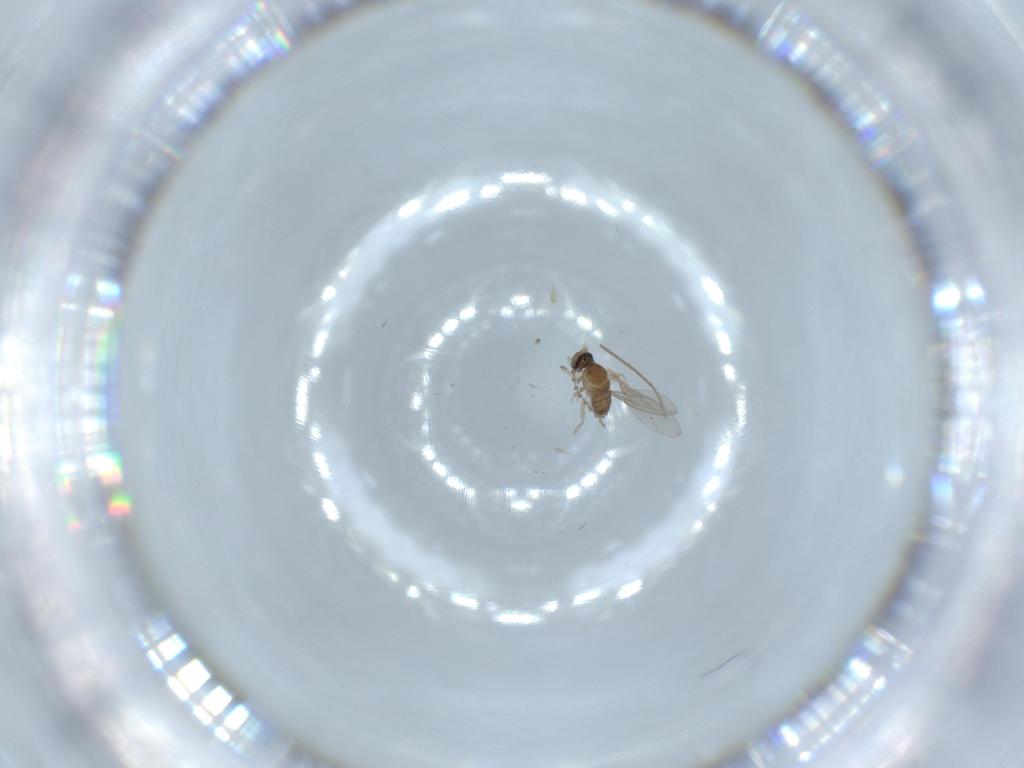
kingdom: Animalia
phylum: Arthropoda
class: Insecta
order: Diptera
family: Cecidomyiidae
